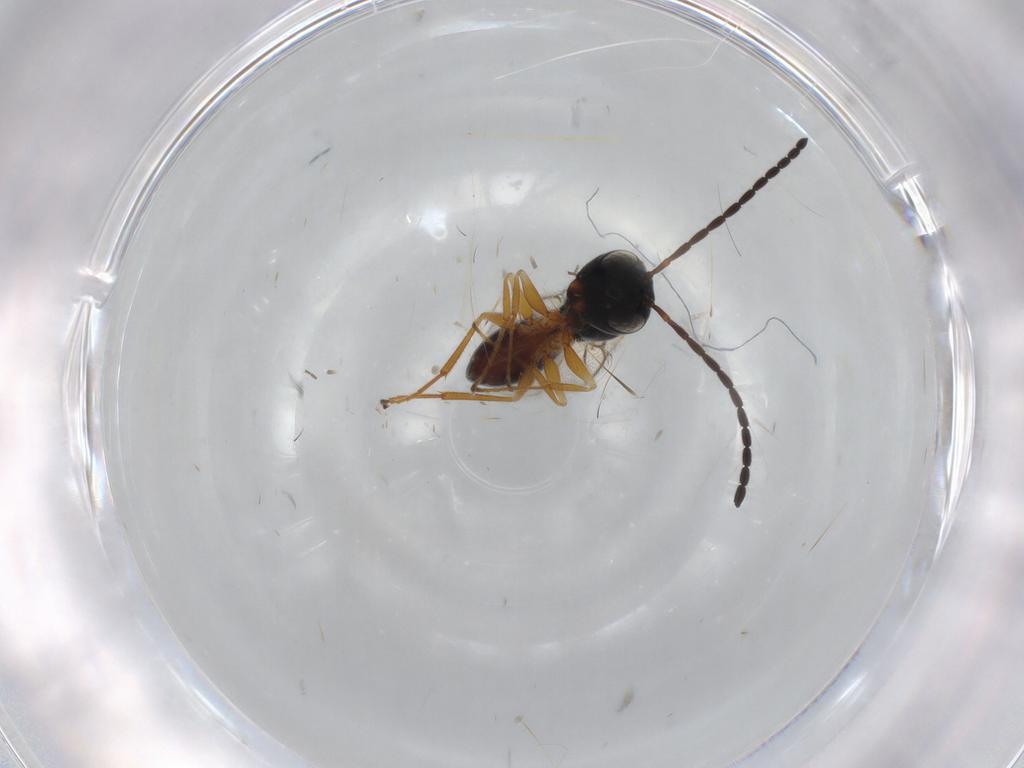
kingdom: Animalia
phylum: Arthropoda
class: Insecta
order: Hymenoptera
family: Figitidae
